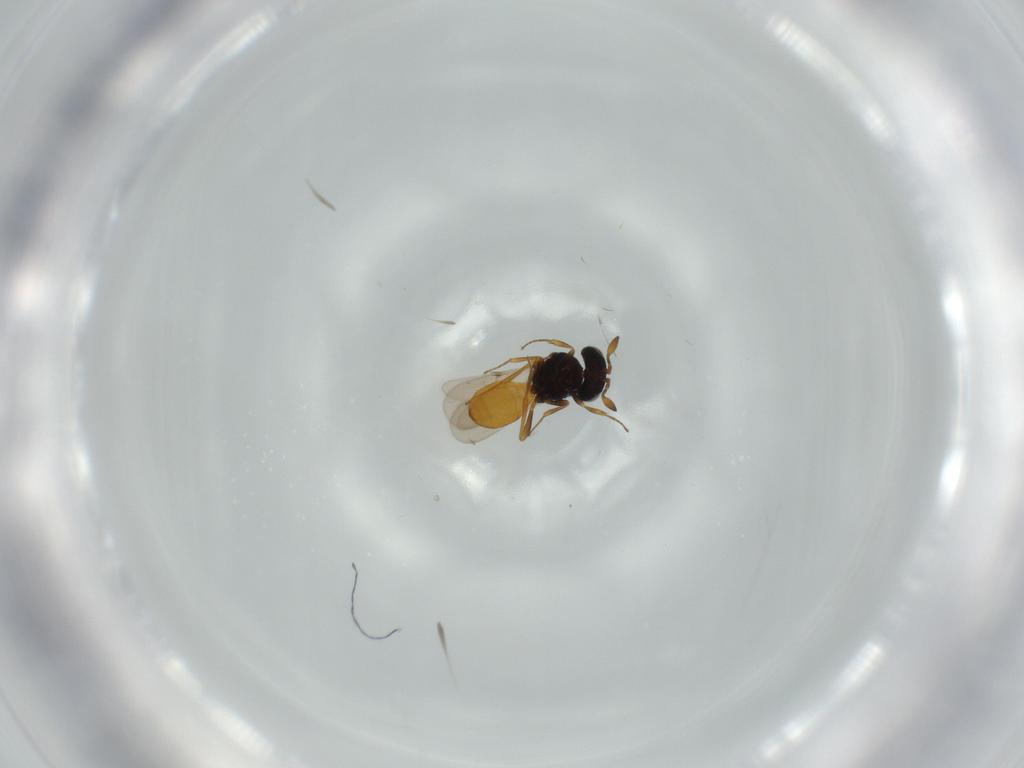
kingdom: Animalia
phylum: Arthropoda
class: Insecta
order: Hymenoptera
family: Scelionidae
